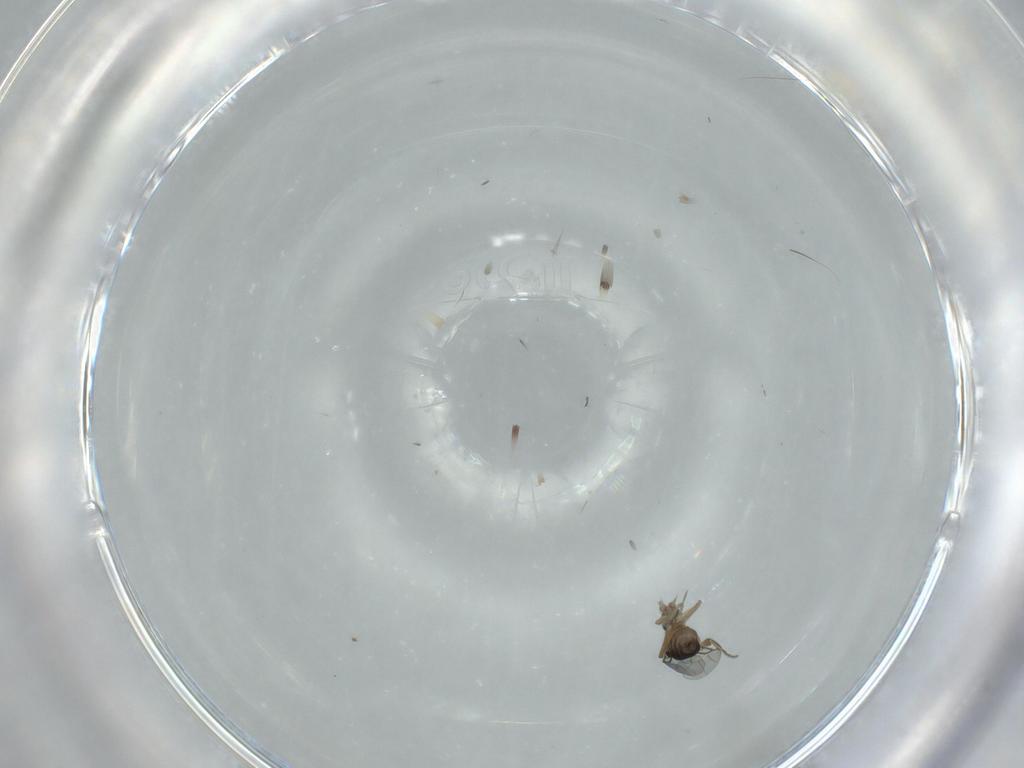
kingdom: Animalia
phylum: Arthropoda
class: Insecta
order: Diptera
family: Phoridae
